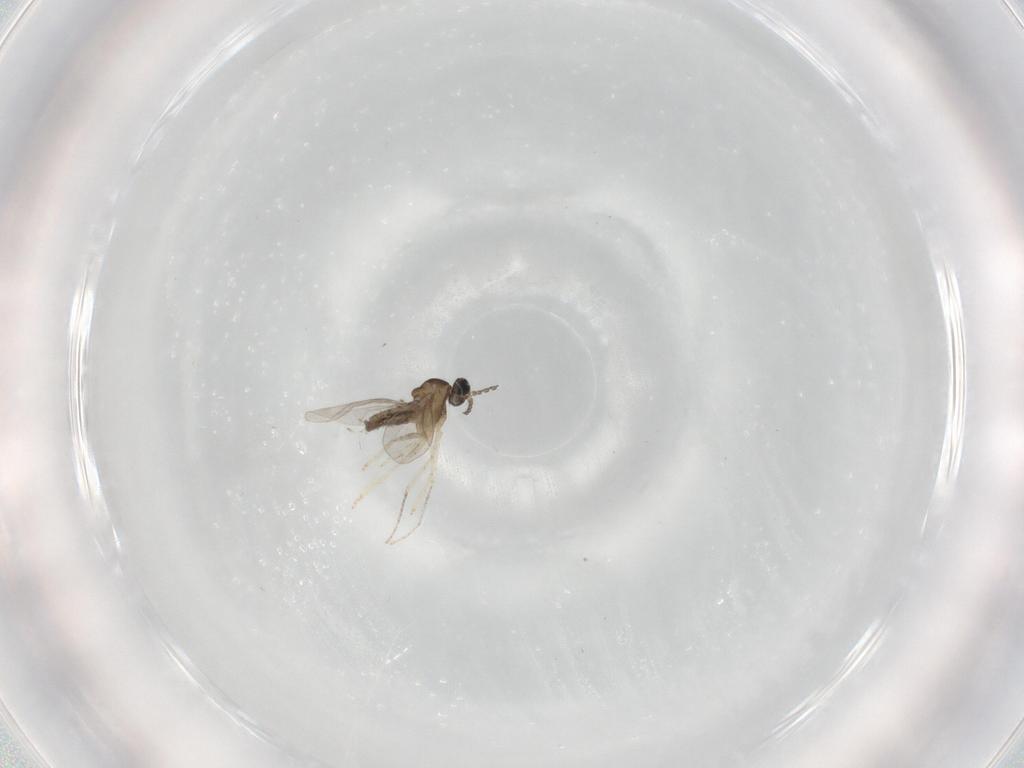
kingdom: Animalia
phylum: Arthropoda
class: Insecta
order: Diptera
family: Cecidomyiidae
